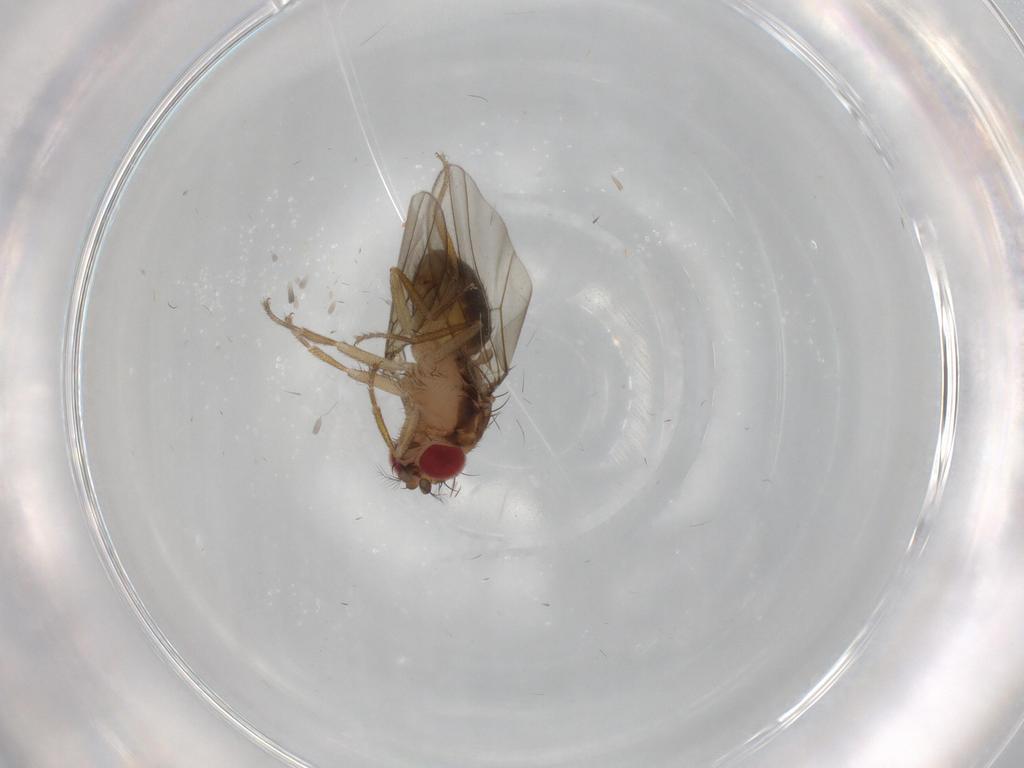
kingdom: Animalia
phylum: Arthropoda
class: Insecta
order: Diptera
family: Drosophilidae
